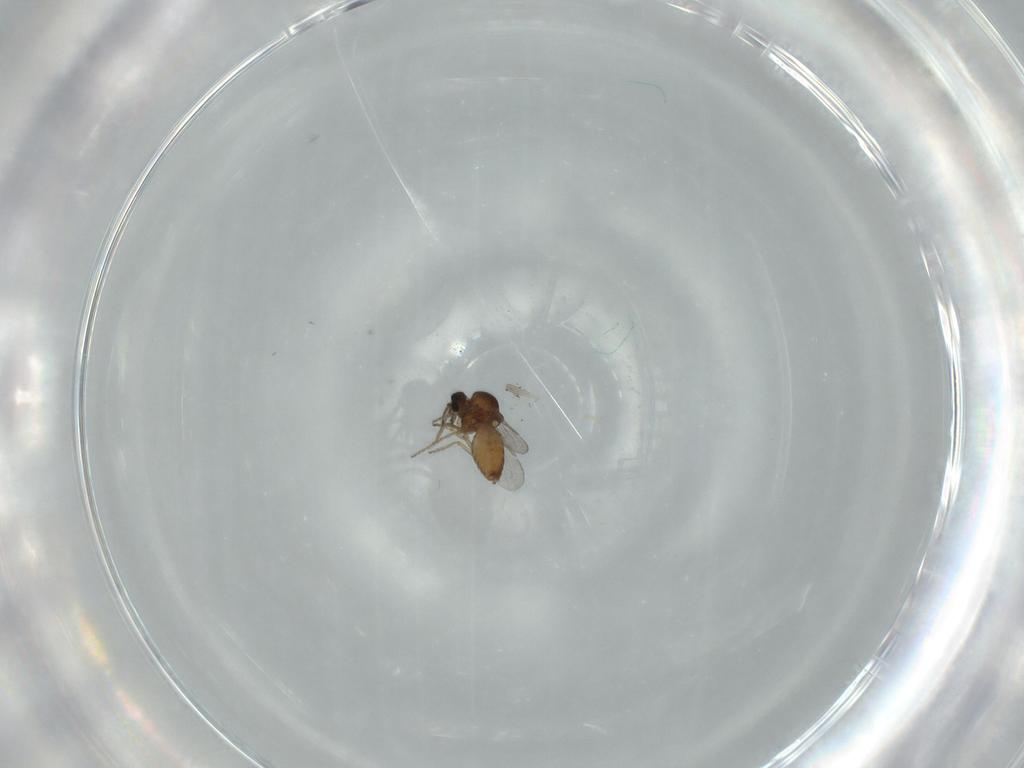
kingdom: Animalia
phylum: Arthropoda
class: Insecta
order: Diptera
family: Ceratopogonidae
